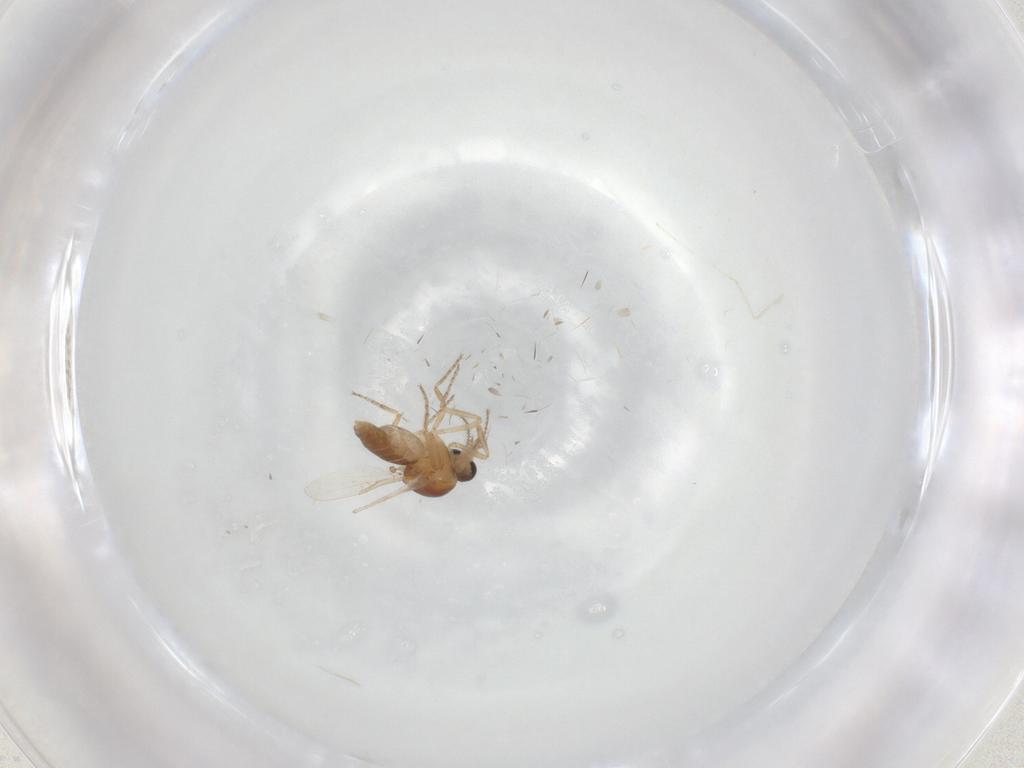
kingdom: Animalia
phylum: Arthropoda
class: Insecta
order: Diptera
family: Ceratopogonidae
